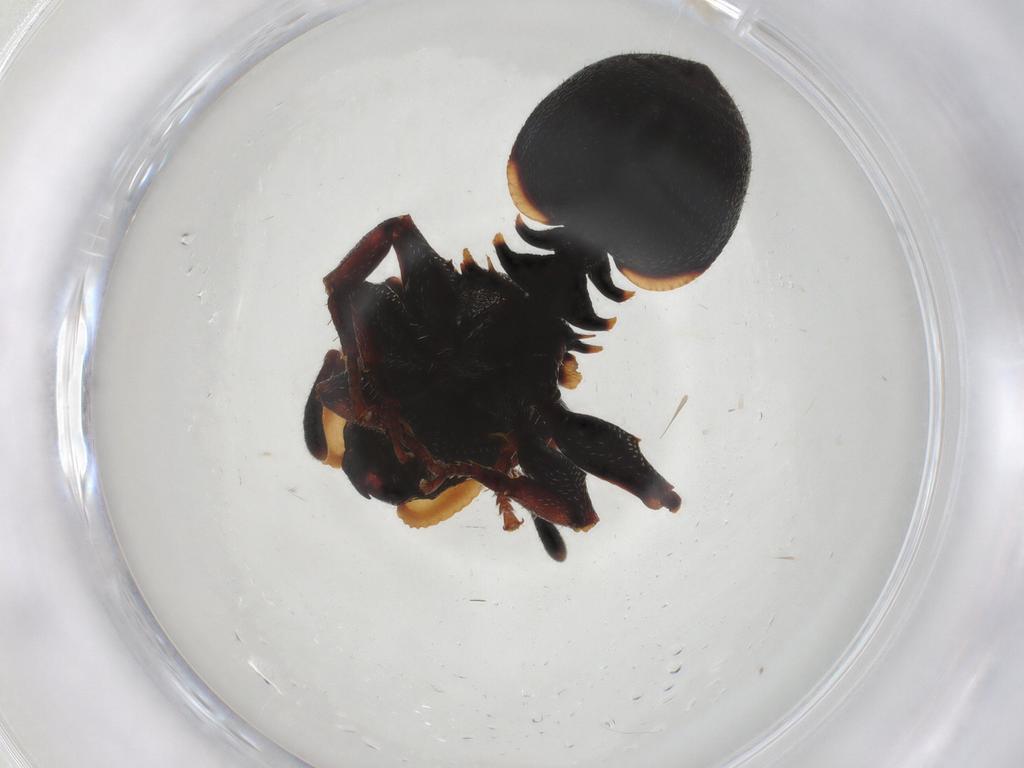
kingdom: Animalia
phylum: Arthropoda
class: Insecta
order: Hymenoptera
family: Formicidae
